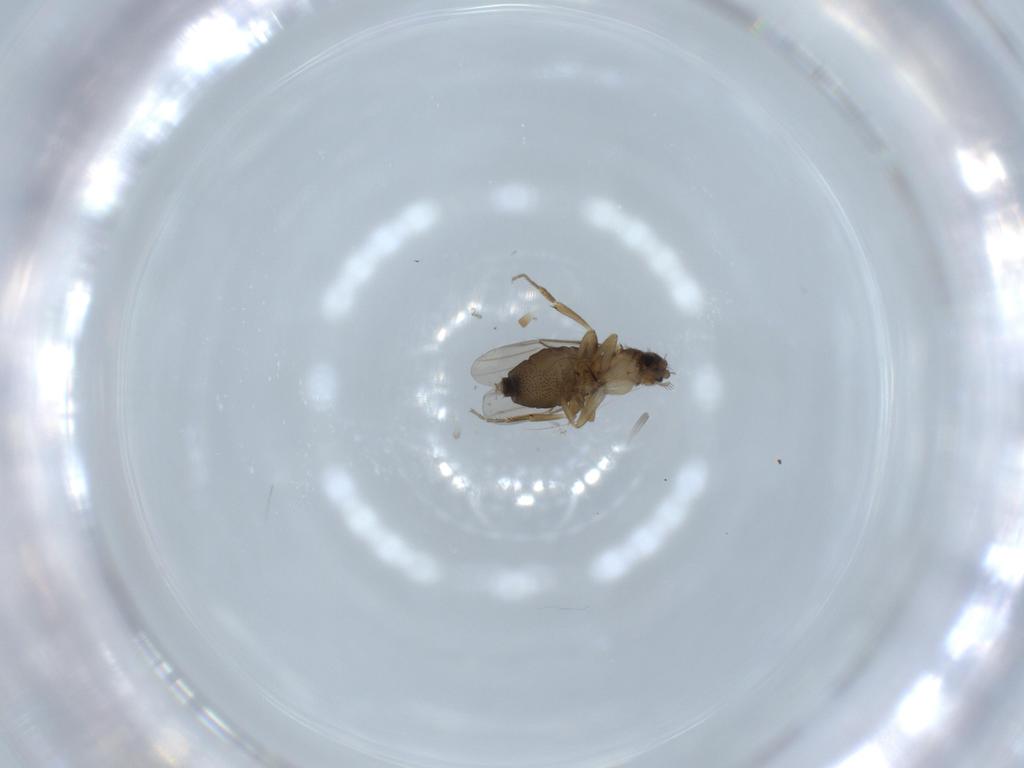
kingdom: Animalia
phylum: Arthropoda
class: Insecta
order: Diptera
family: Phoridae
